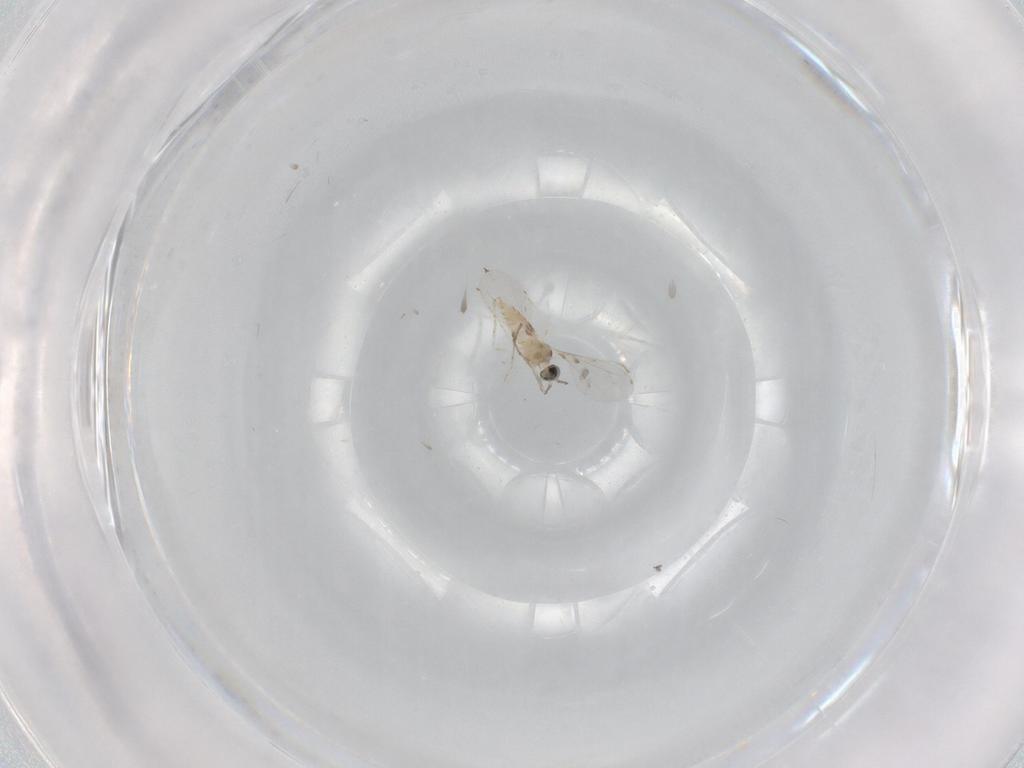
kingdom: Animalia
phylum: Arthropoda
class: Insecta
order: Diptera
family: Cecidomyiidae
